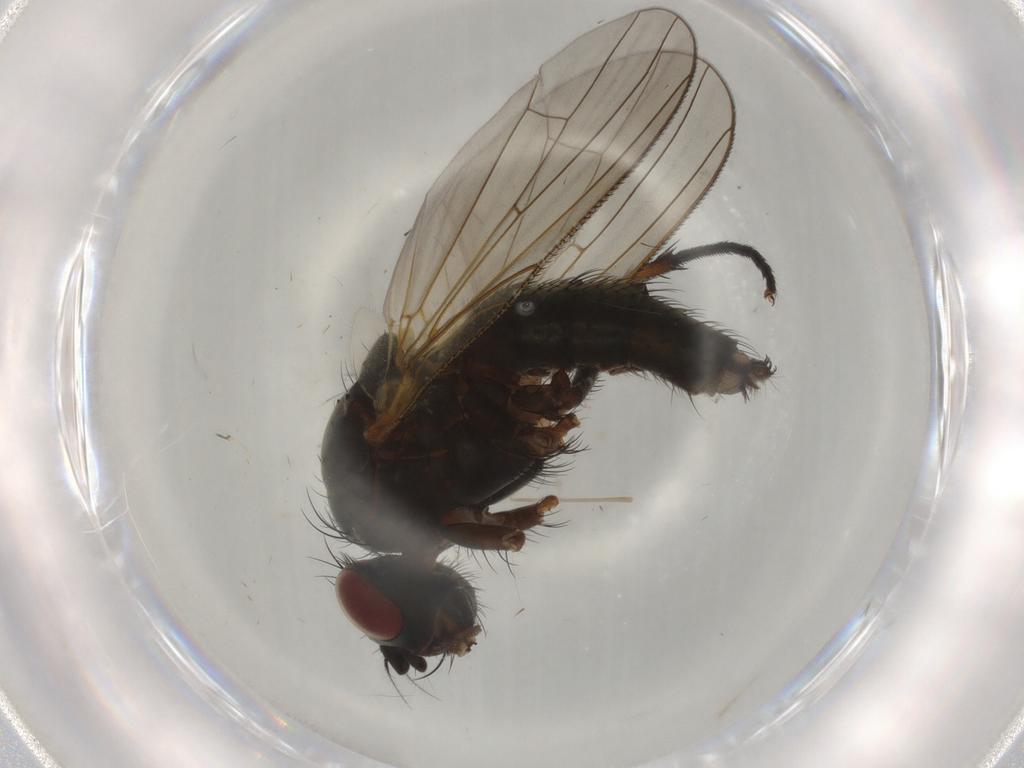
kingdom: Animalia
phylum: Arthropoda
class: Insecta
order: Diptera
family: Anthomyiidae
